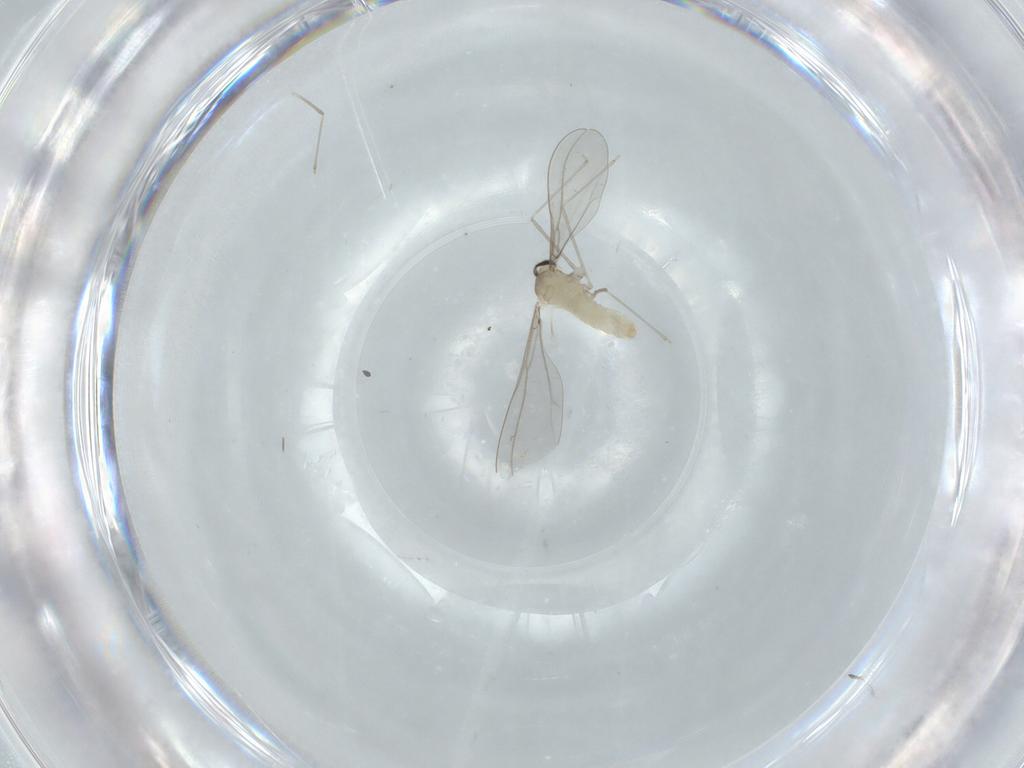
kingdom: Animalia
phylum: Arthropoda
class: Insecta
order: Diptera
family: Cecidomyiidae
